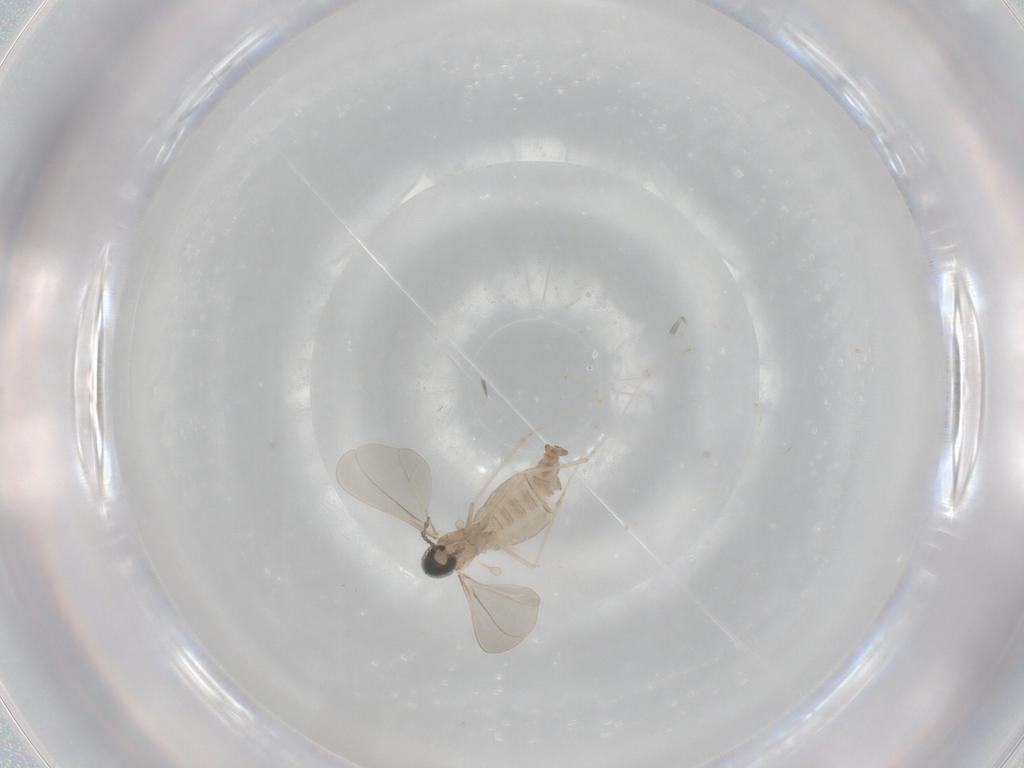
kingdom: Animalia
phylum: Arthropoda
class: Insecta
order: Diptera
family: Cecidomyiidae
